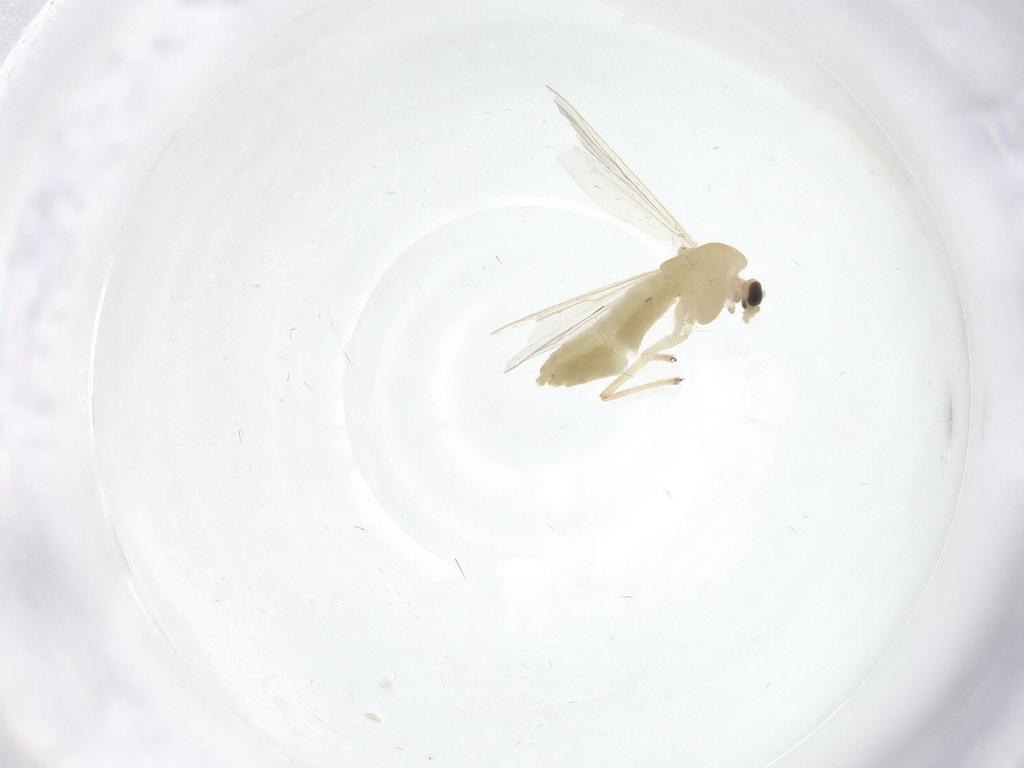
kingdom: Animalia
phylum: Arthropoda
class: Insecta
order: Diptera
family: Chironomidae
